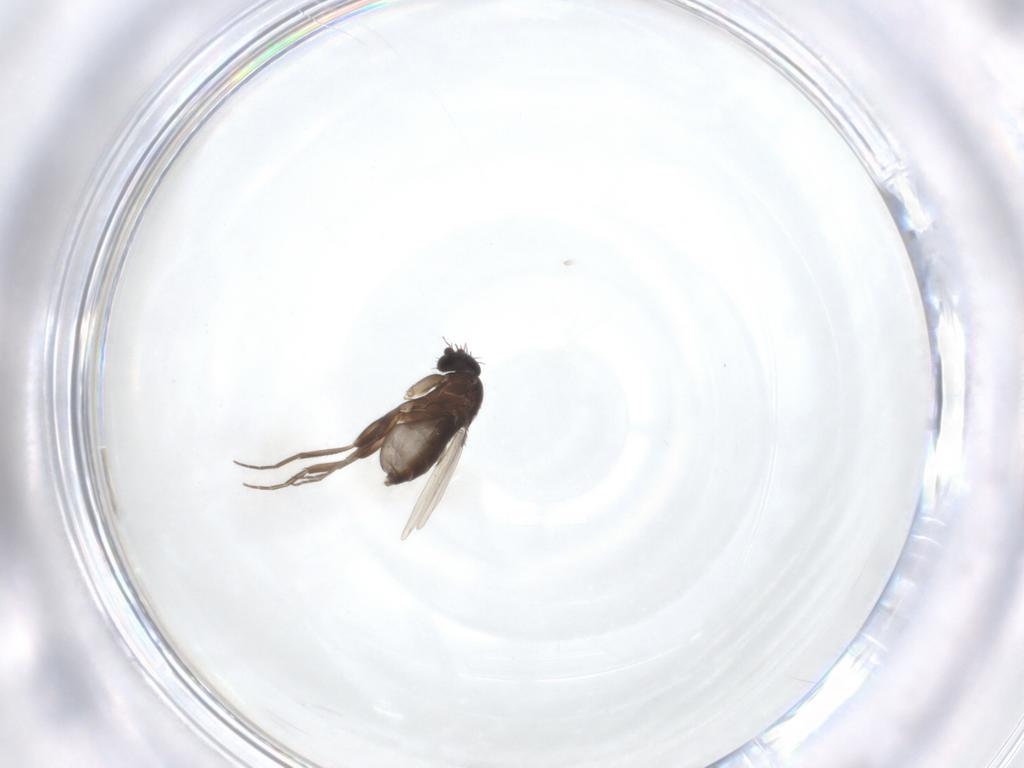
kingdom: Animalia
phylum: Arthropoda
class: Insecta
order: Diptera
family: Phoridae
